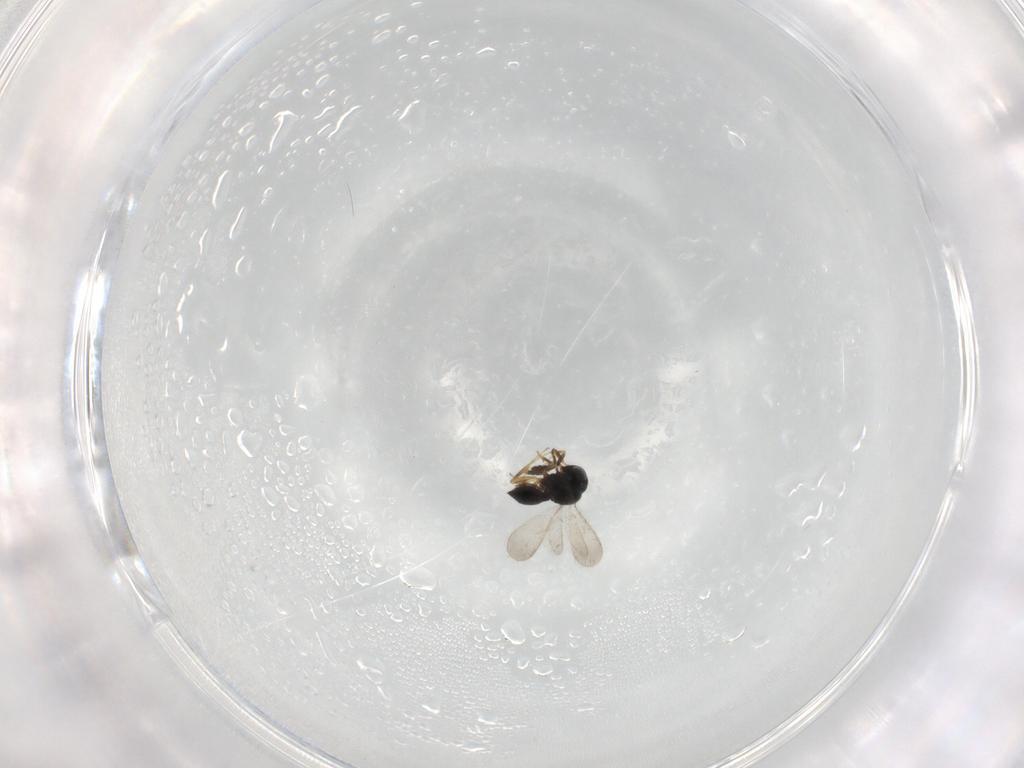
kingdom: Animalia
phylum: Arthropoda
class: Insecta
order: Hymenoptera
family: Scelionidae
